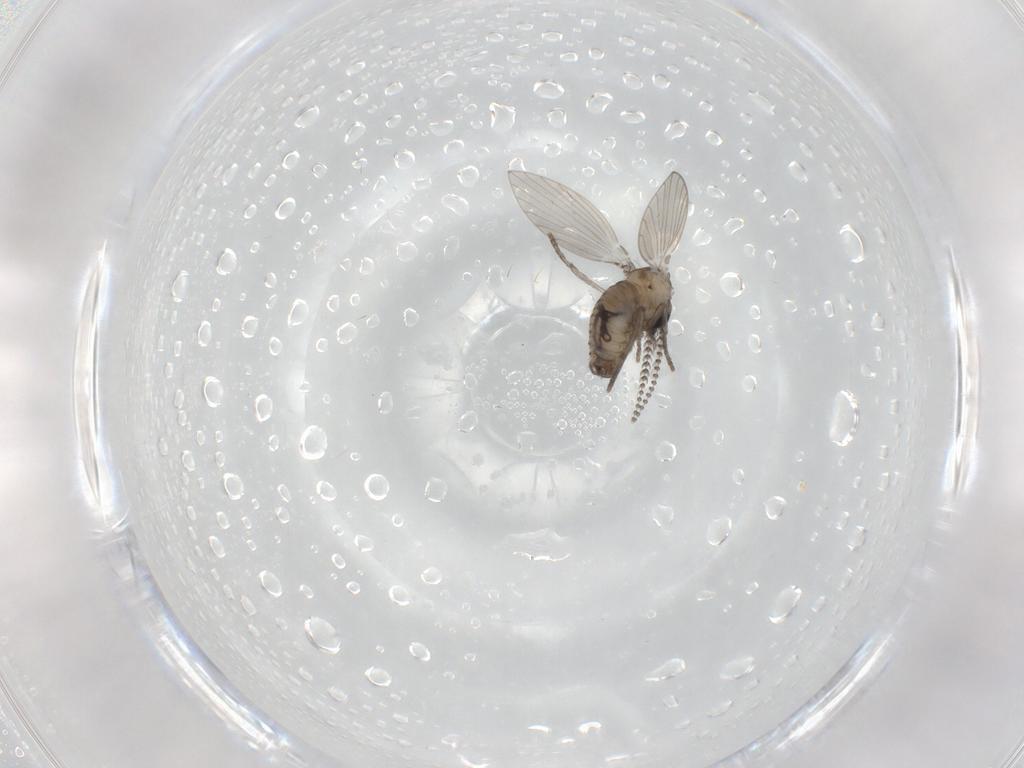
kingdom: Animalia
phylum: Arthropoda
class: Insecta
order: Diptera
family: Psychodidae
